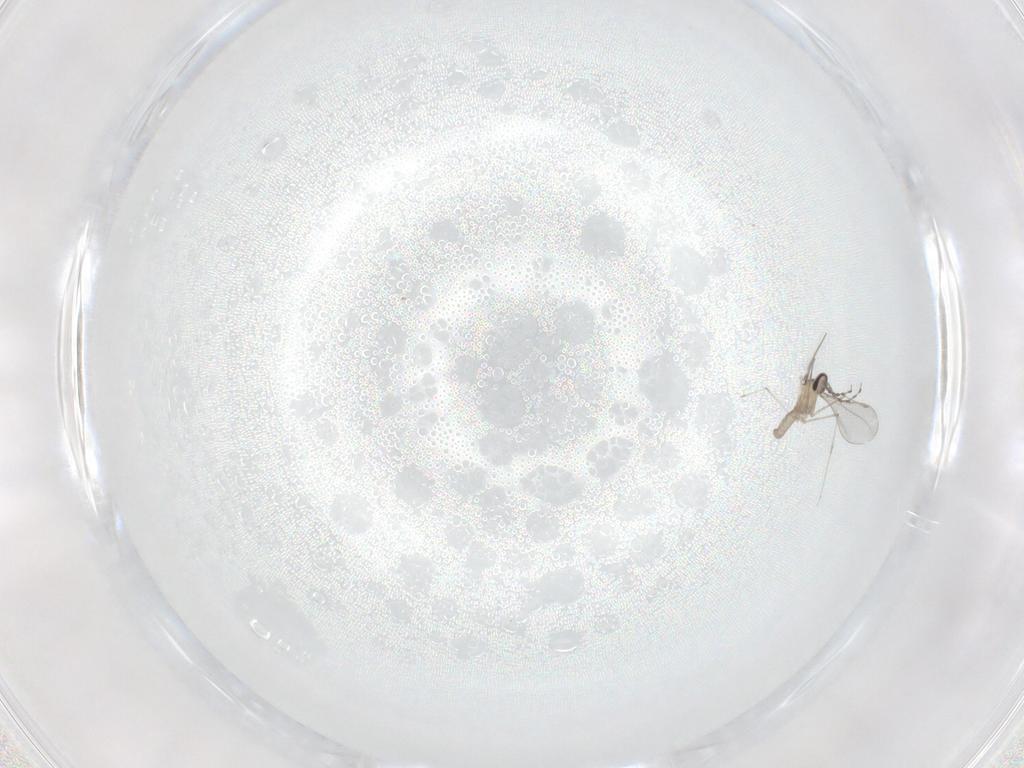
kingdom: Animalia
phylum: Arthropoda
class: Insecta
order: Diptera
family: Cecidomyiidae
